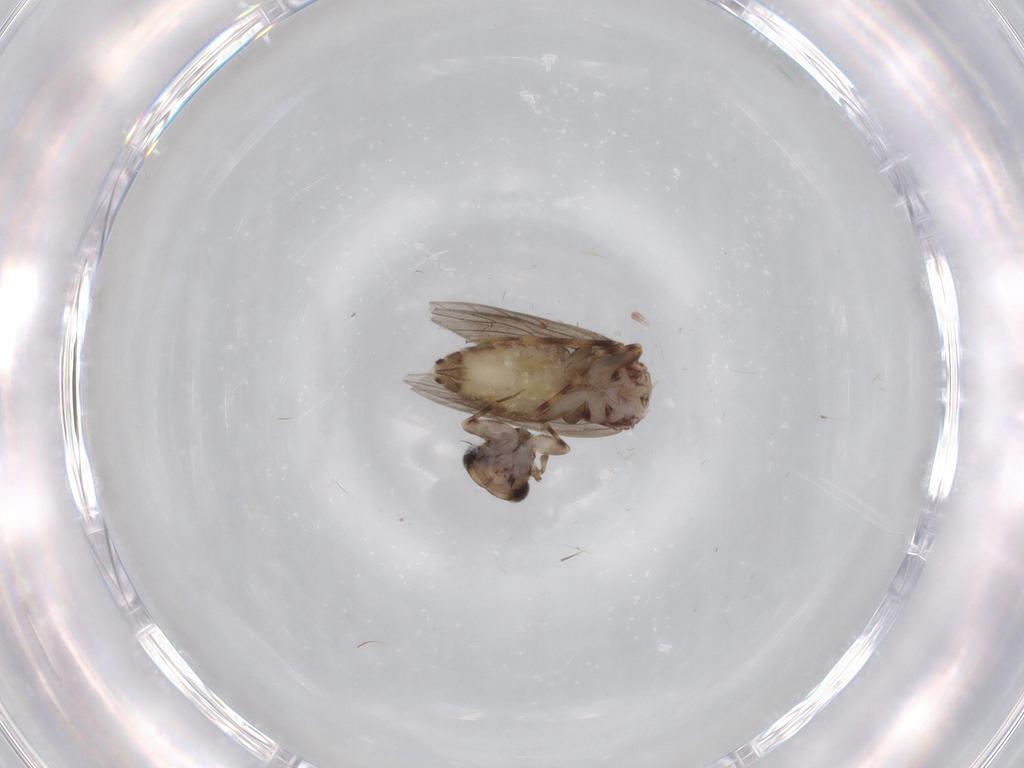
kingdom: Animalia
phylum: Arthropoda
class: Insecta
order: Psocodea
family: Lepidopsocidae
